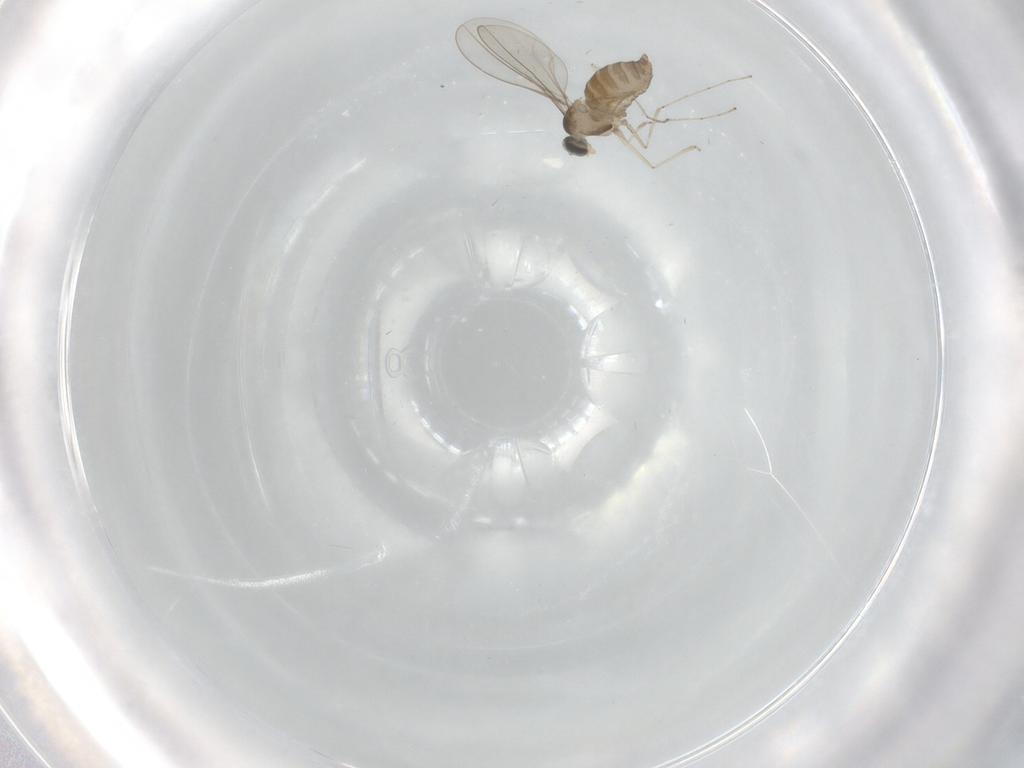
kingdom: Animalia
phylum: Arthropoda
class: Insecta
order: Diptera
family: Cecidomyiidae
